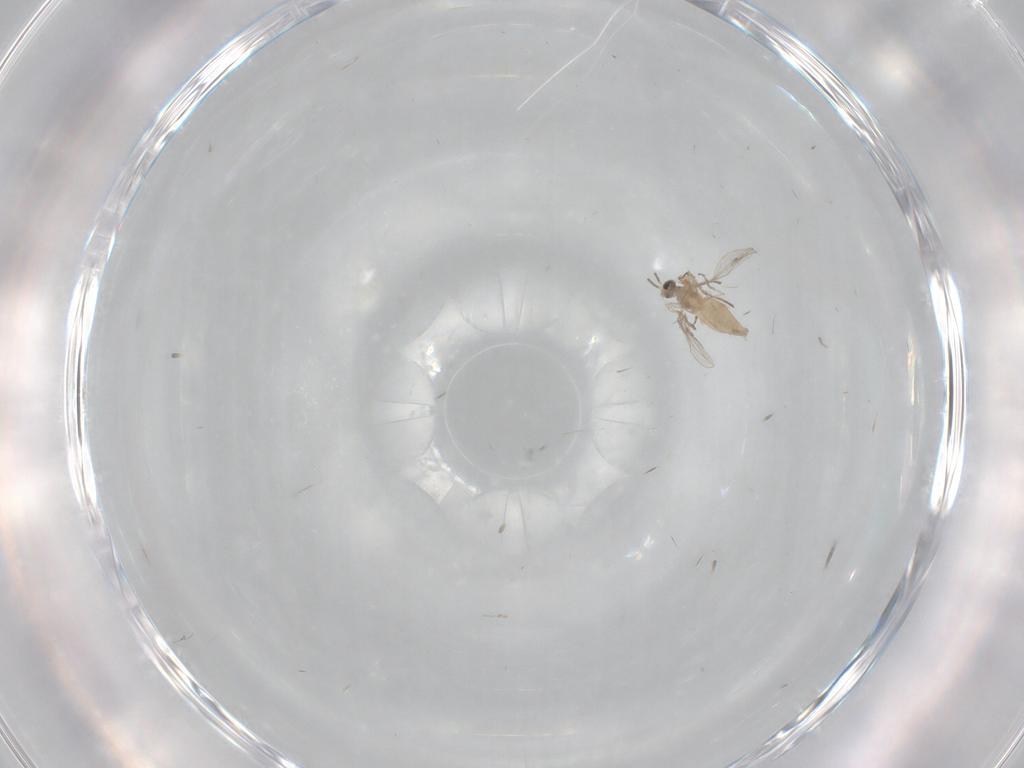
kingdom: Animalia
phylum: Arthropoda
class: Insecta
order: Diptera
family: Cecidomyiidae
